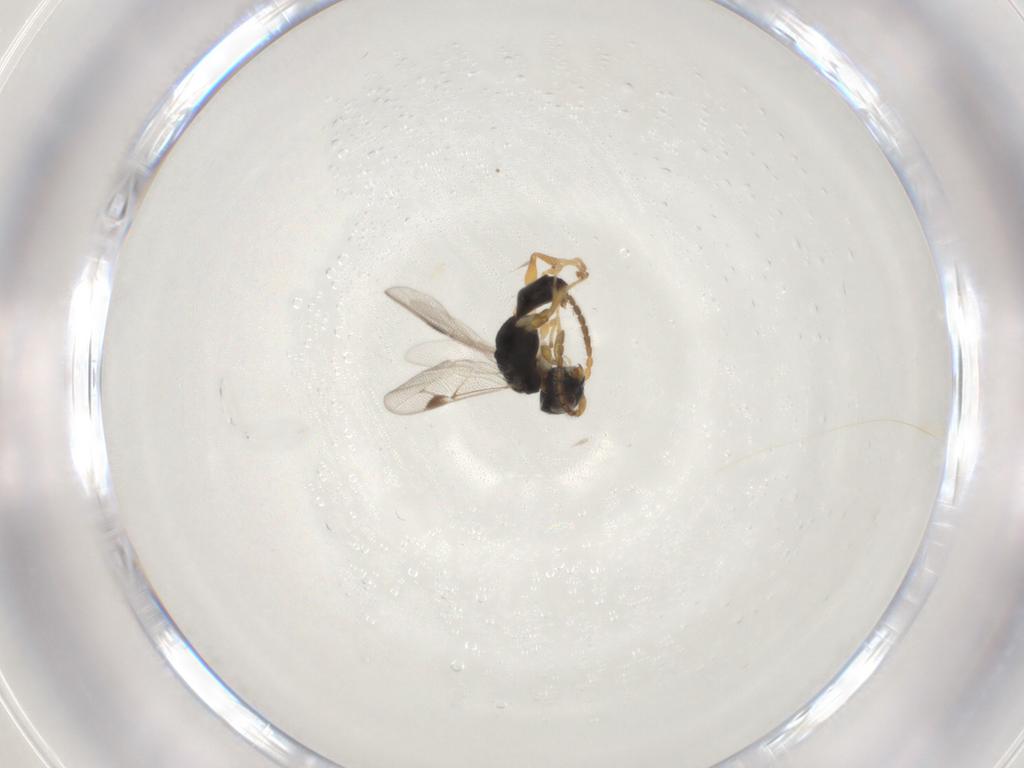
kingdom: Animalia
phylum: Arthropoda
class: Insecta
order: Hymenoptera
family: Dryinidae
